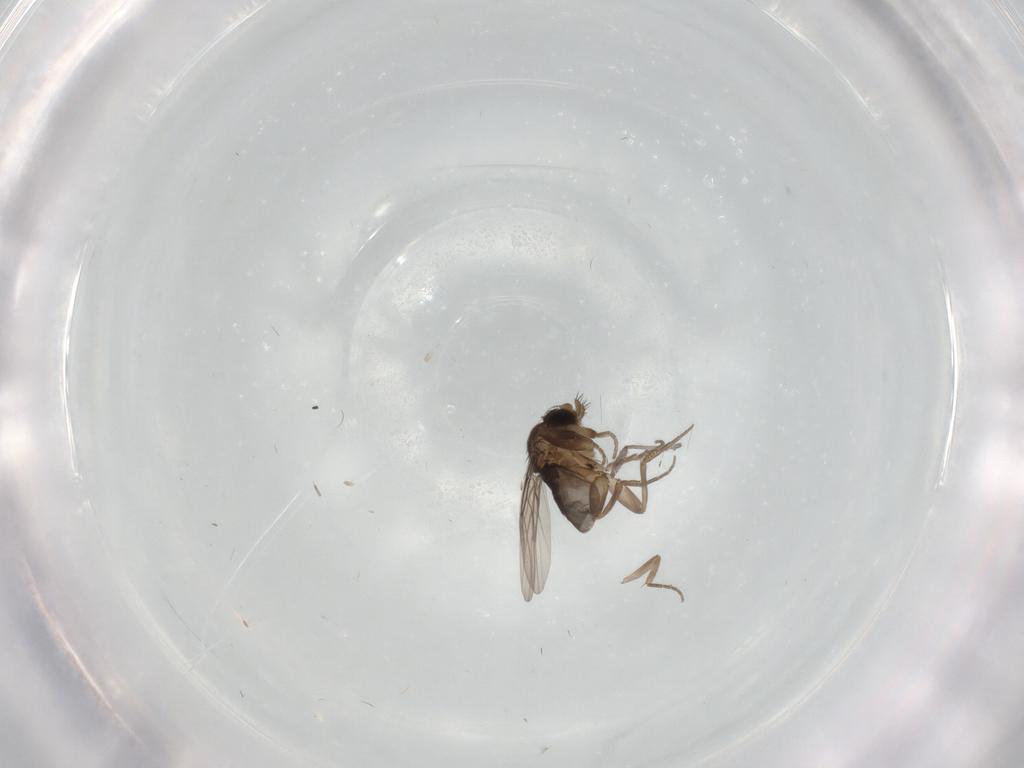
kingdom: Animalia
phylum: Arthropoda
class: Insecta
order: Diptera
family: Sciaridae
